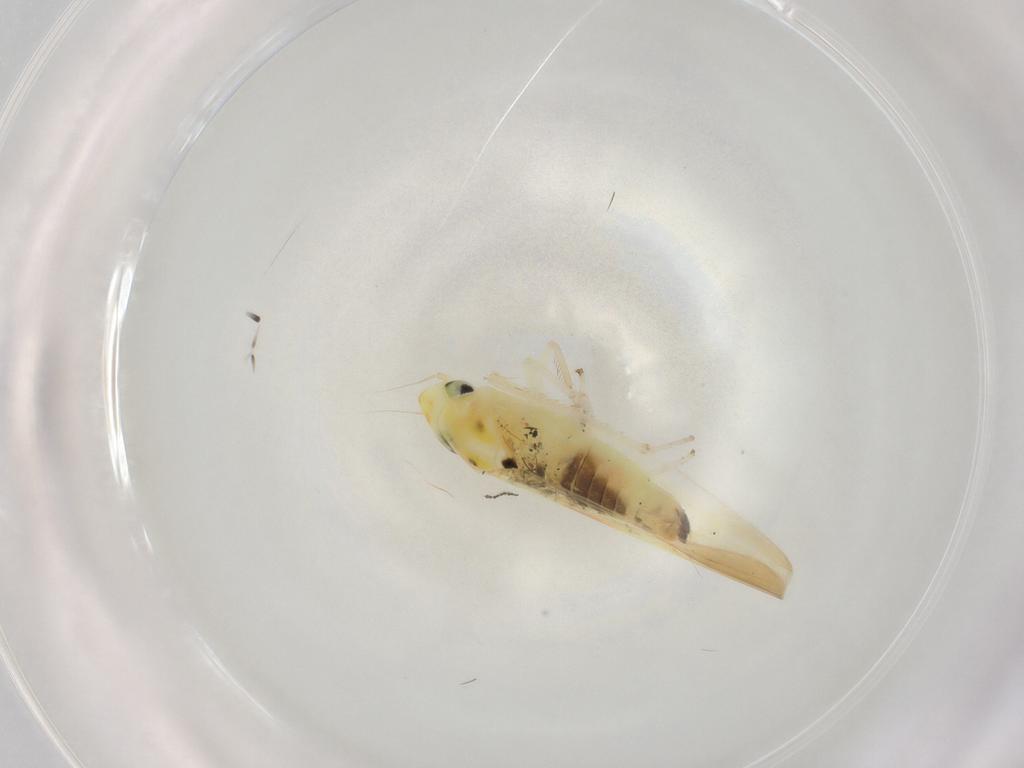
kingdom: Animalia
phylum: Arthropoda
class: Insecta
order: Hemiptera
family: Cicadellidae
